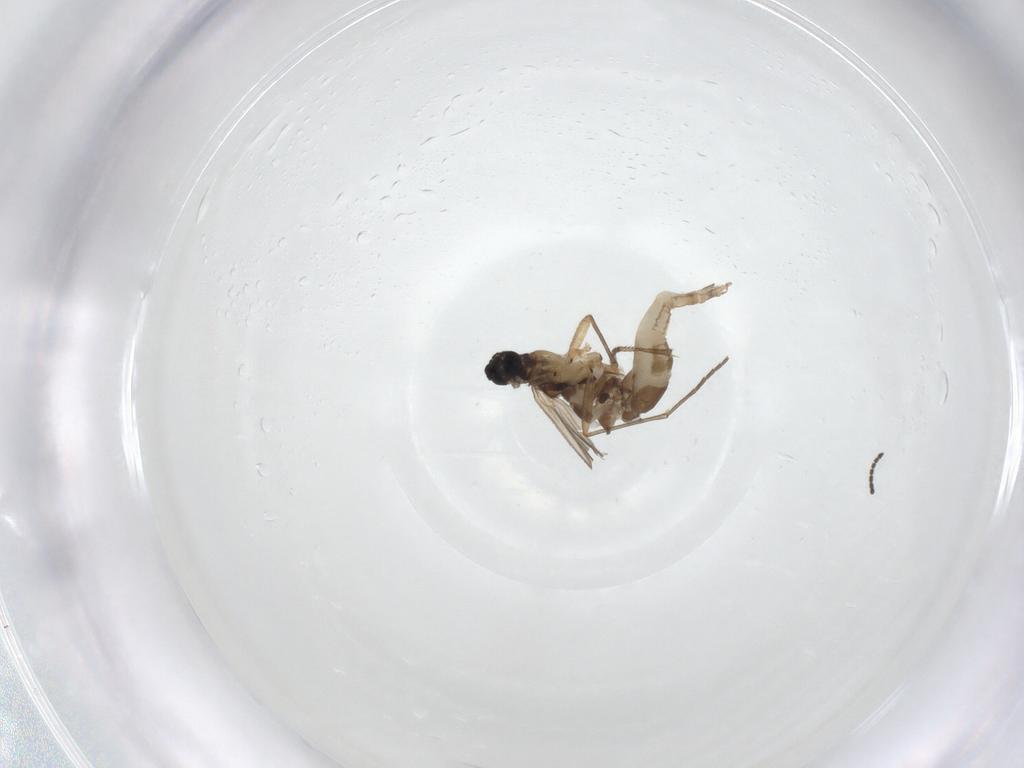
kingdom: Animalia
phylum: Arthropoda
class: Insecta
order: Diptera
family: Sciaridae
